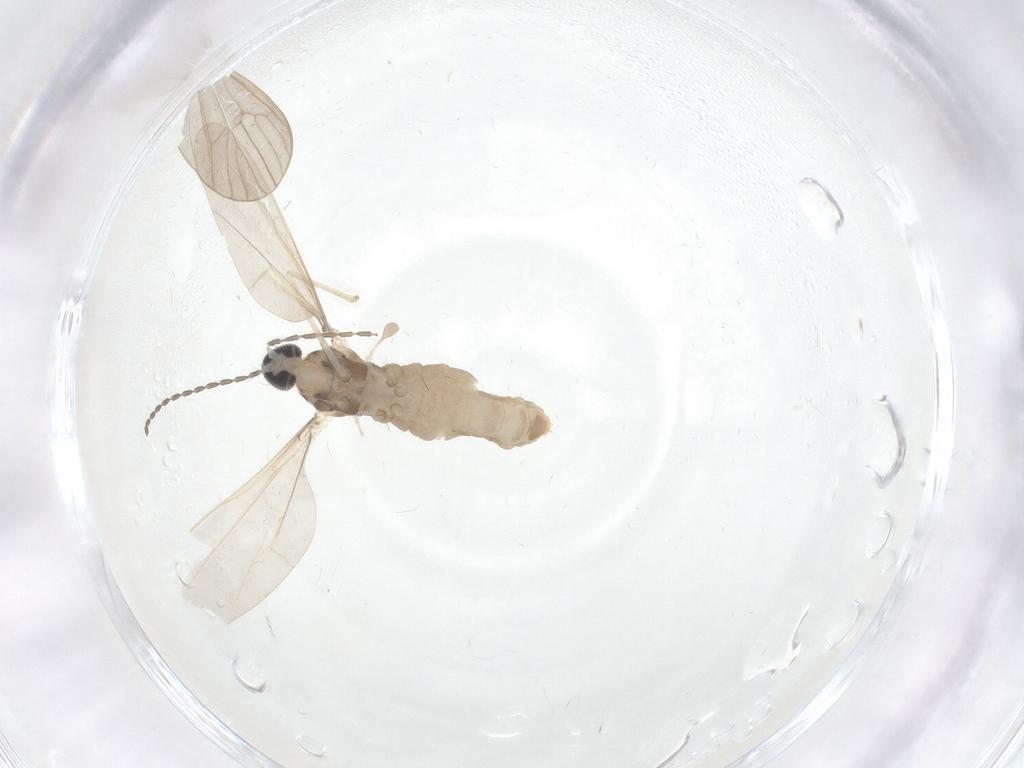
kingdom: Animalia
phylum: Arthropoda
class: Insecta
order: Diptera
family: Cecidomyiidae
